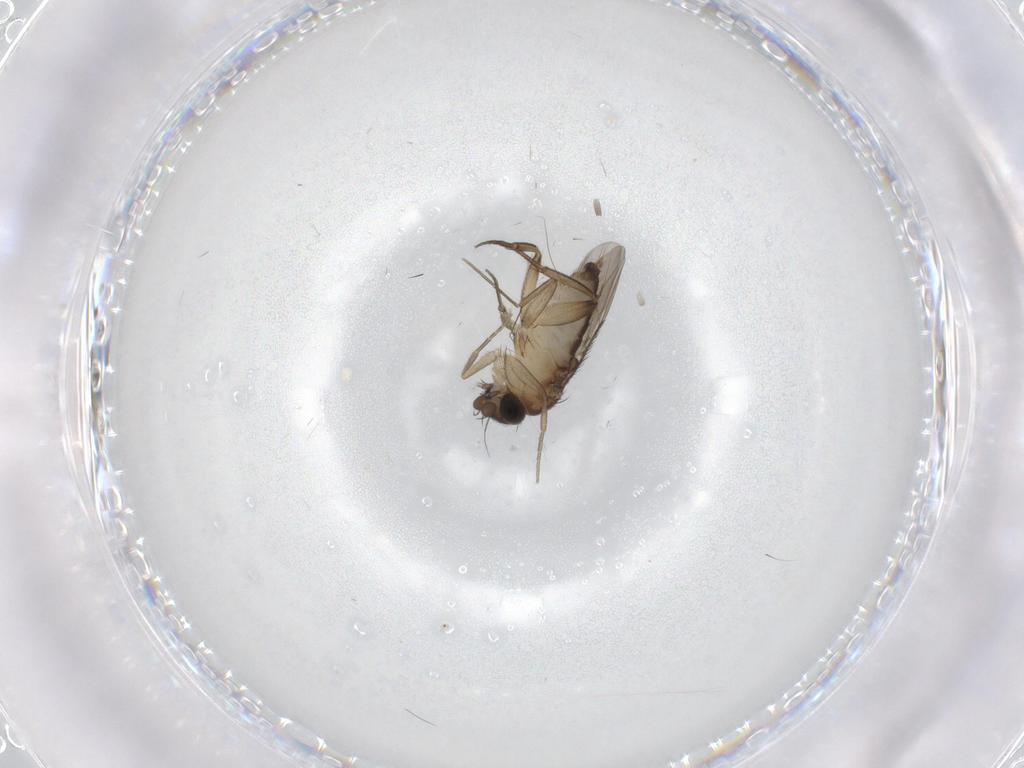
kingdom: Animalia
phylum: Arthropoda
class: Insecta
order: Diptera
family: Phoridae
